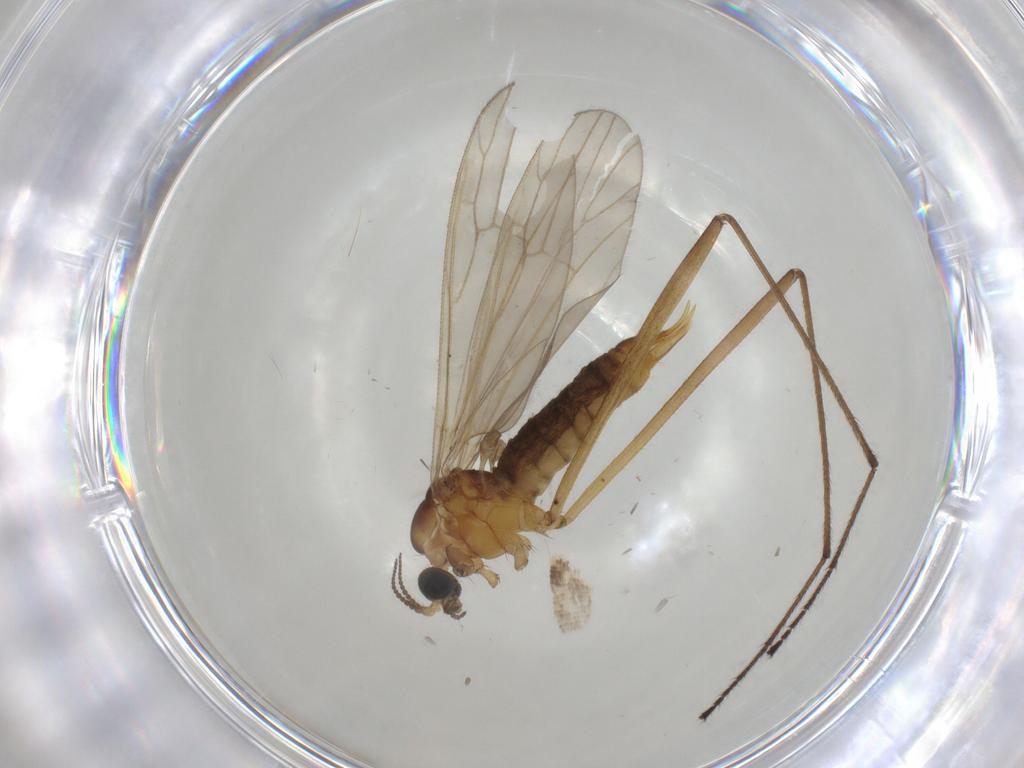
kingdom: Animalia
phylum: Arthropoda
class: Insecta
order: Diptera
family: Limoniidae
